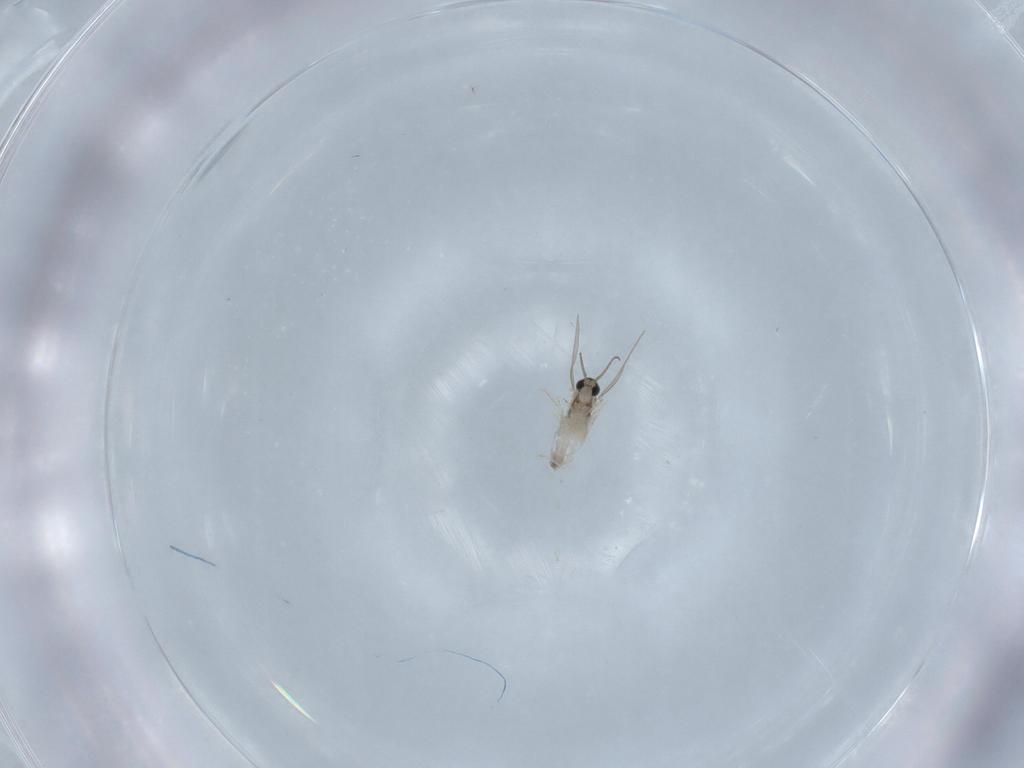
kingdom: Animalia
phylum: Arthropoda
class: Insecta
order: Diptera
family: Cecidomyiidae
